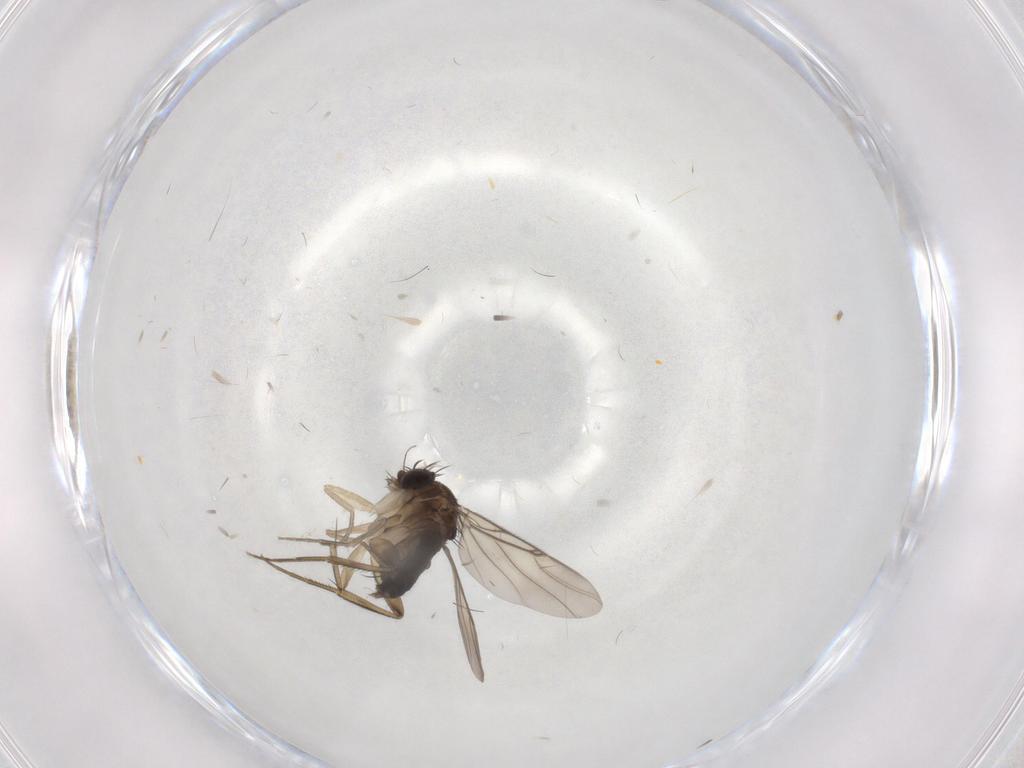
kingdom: Animalia
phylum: Arthropoda
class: Insecta
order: Diptera
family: Cecidomyiidae
